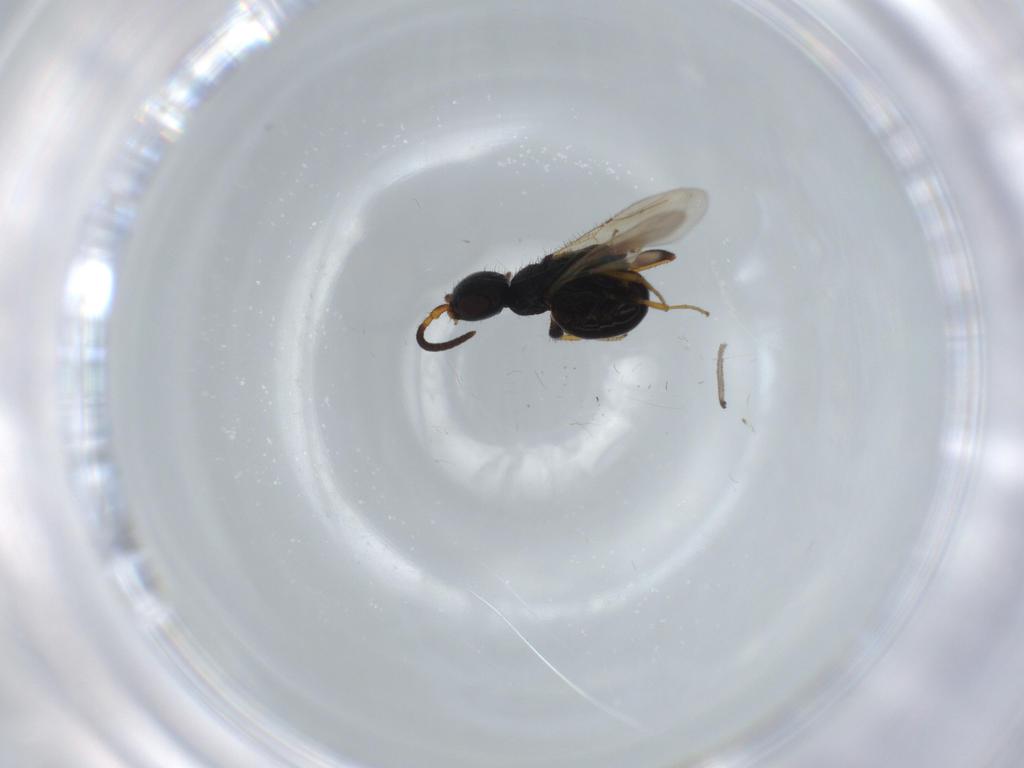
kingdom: Animalia
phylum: Arthropoda
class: Insecta
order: Hymenoptera
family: Bethylidae
